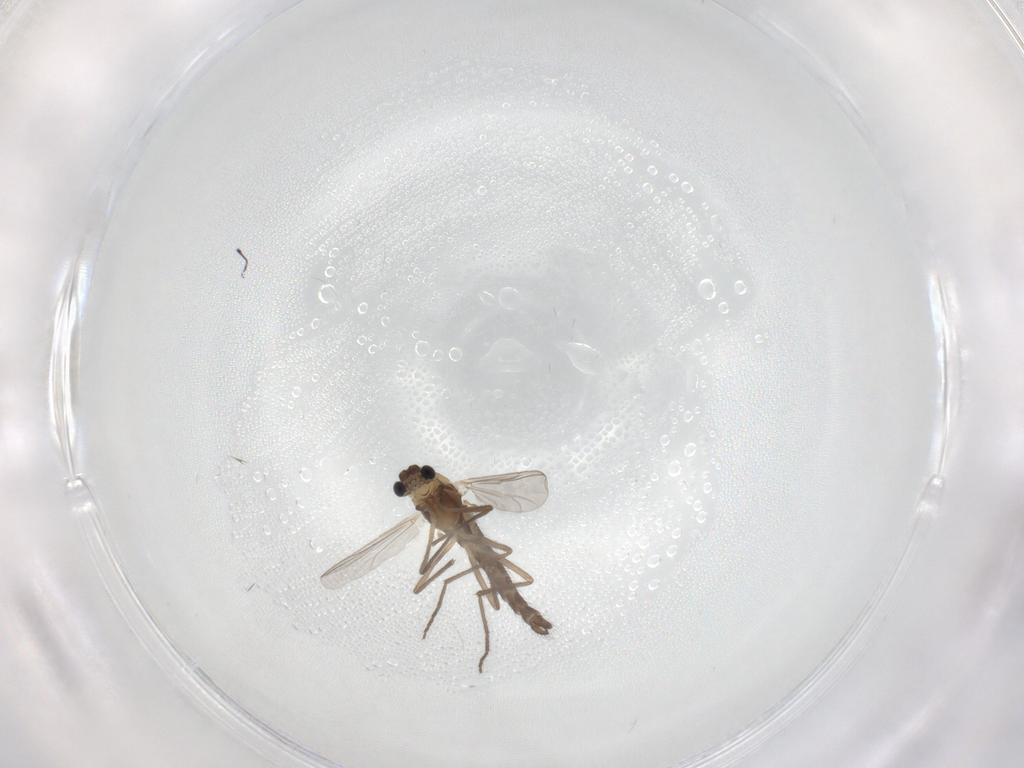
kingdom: Animalia
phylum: Arthropoda
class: Insecta
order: Diptera
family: Chironomidae
